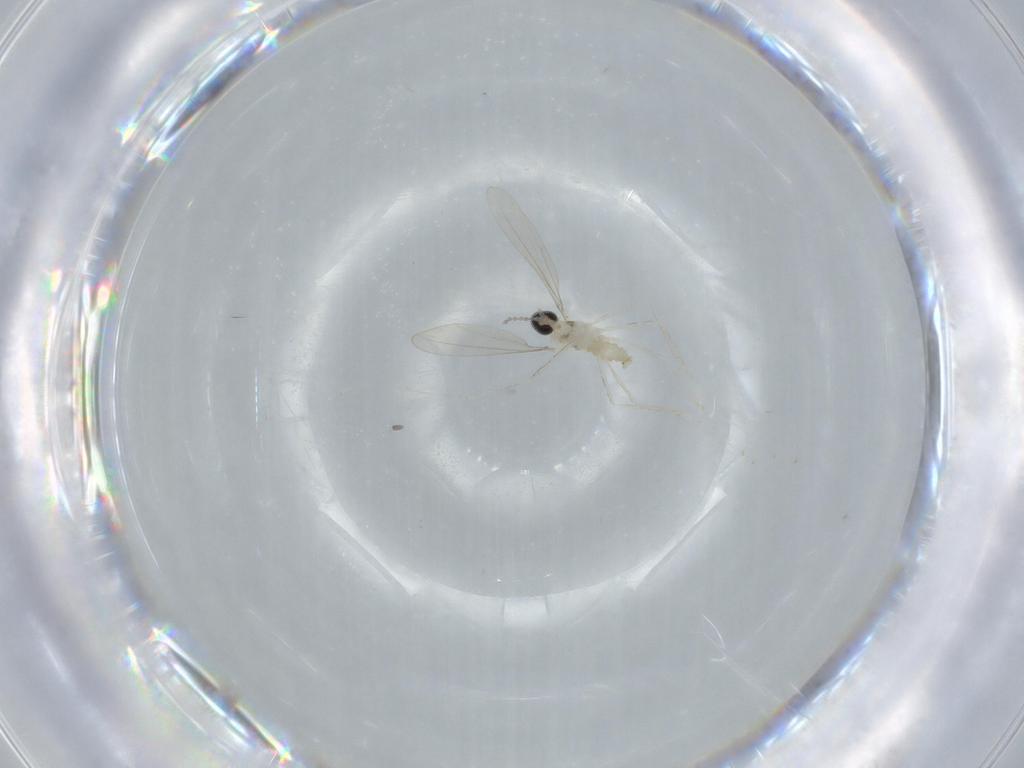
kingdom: Animalia
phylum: Arthropoda
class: Insecta
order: Diptera
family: Cecidomyiidae
